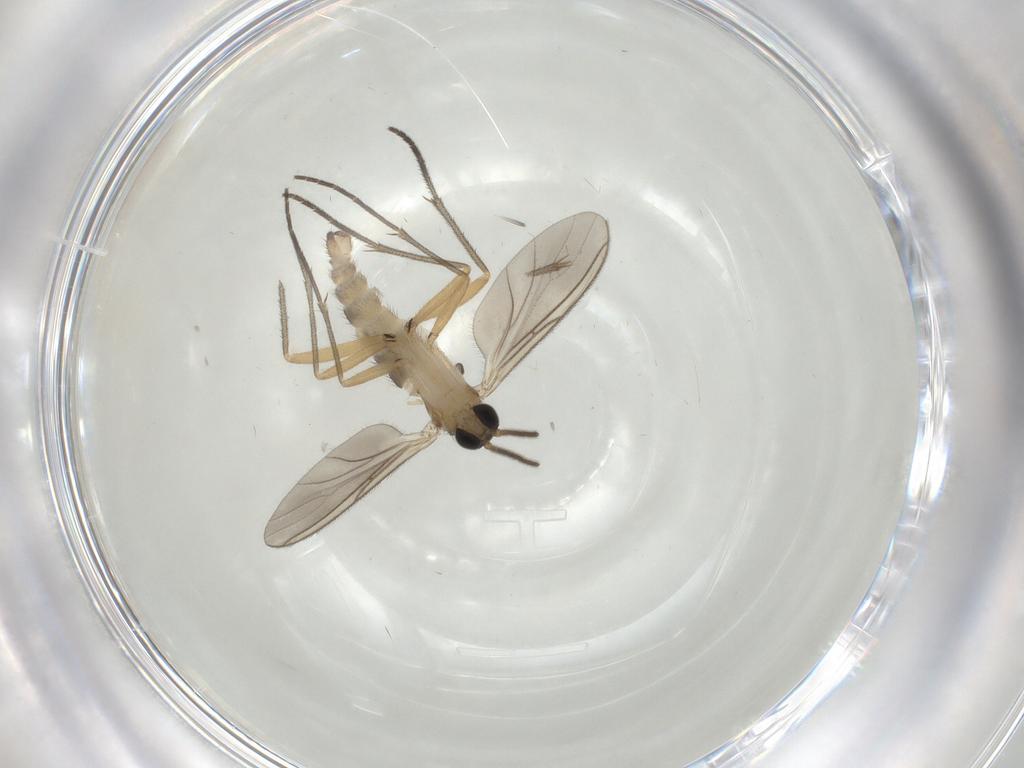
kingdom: Animalia
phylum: Arthropoda
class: Insecta
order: Diptera
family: Sciaridae
